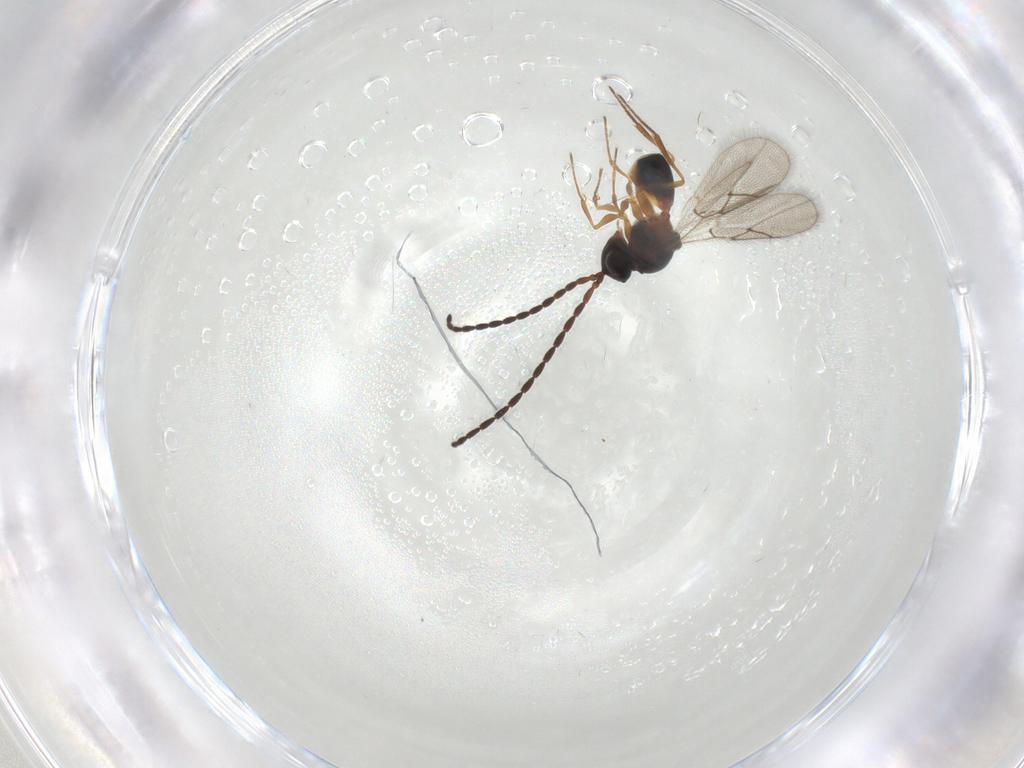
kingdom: Animalia
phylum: Arthropoda
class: Insecta
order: Hymenoptera
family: Figitidae
